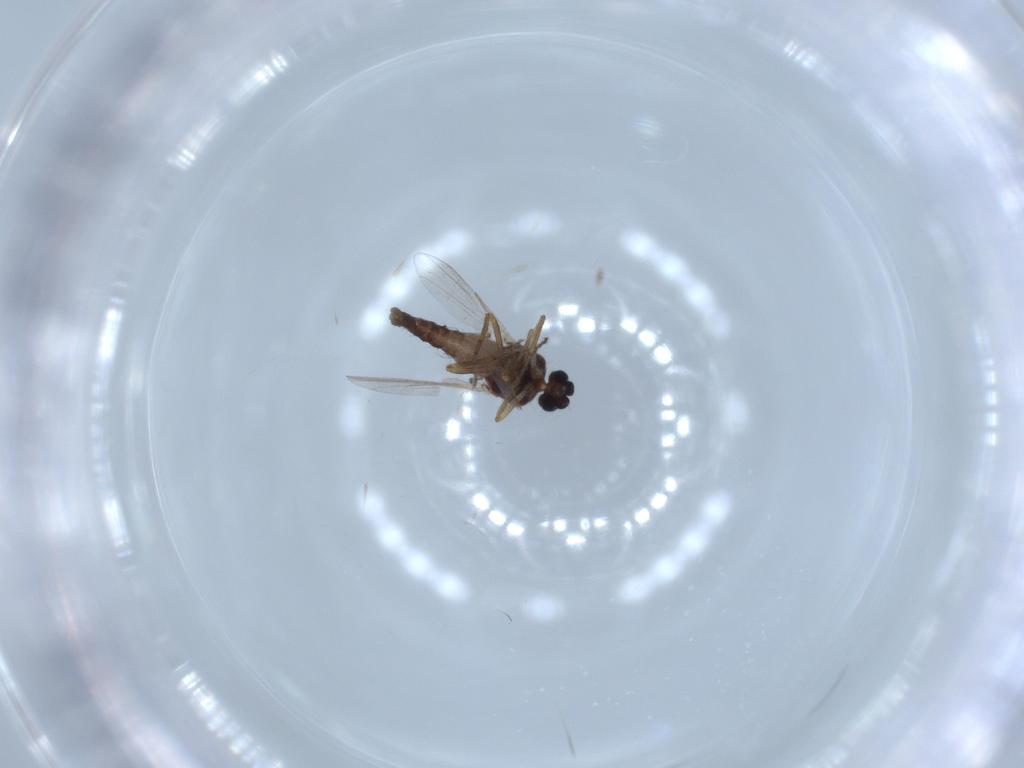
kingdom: Animalia
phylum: Arthropoda
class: Insecta
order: Diptera
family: Ceratopogonidae
